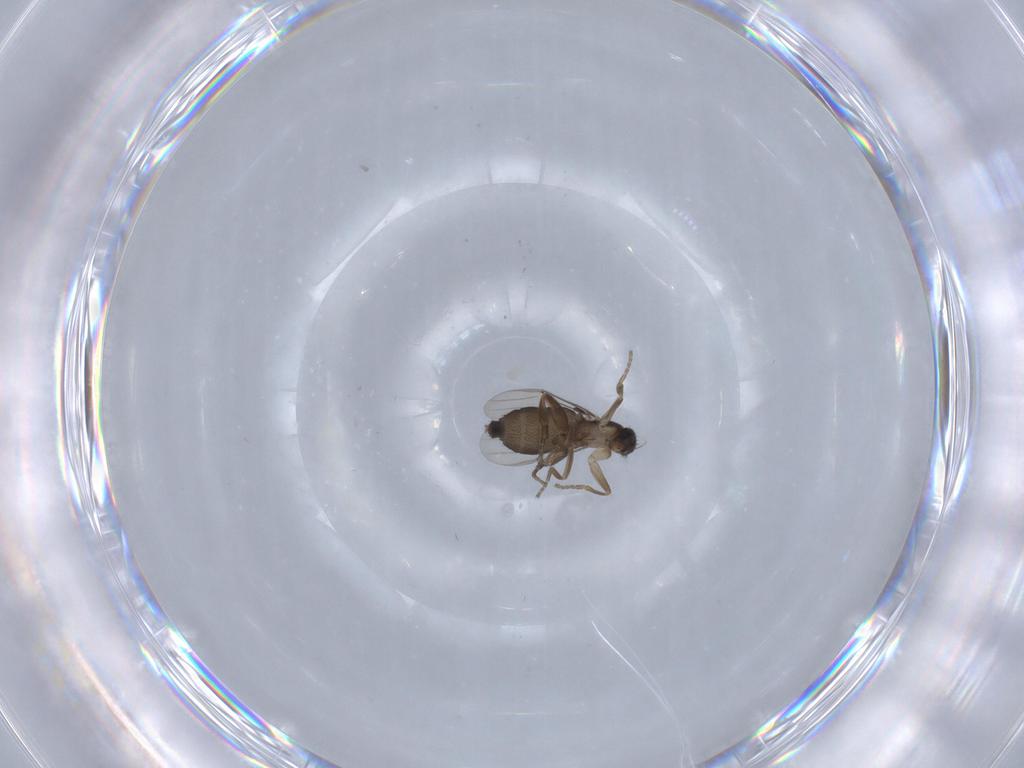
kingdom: Animalia
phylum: Arthropoda
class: Insecta
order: Diptera
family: Phoridae
